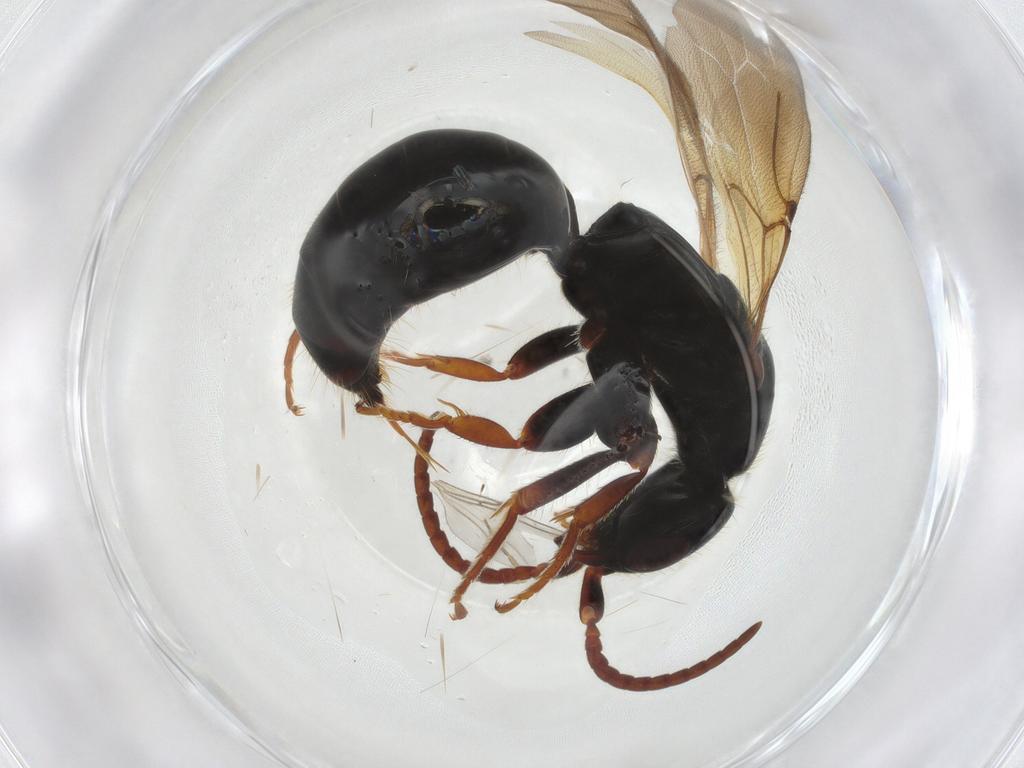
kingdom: Animalia
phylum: Arthropoda
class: Insecta
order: Hymenoptera
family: Bethylidae
